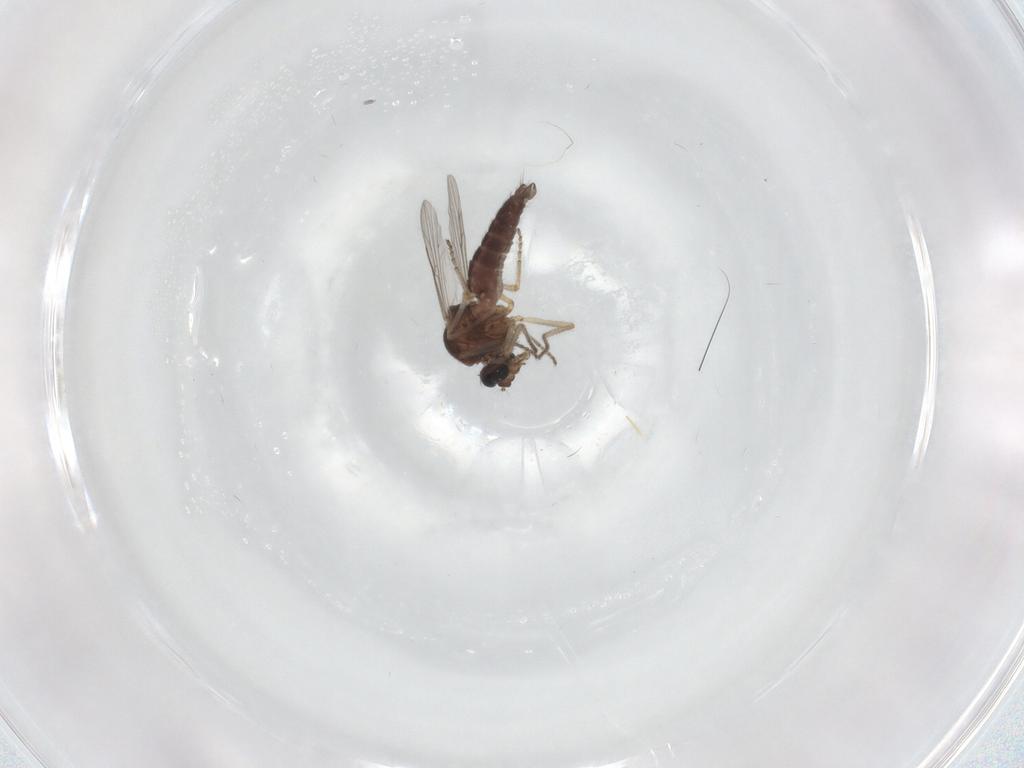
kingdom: Animalia
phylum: Arthropoda
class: Insecta
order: Diptera
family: Ceratopogonidae
